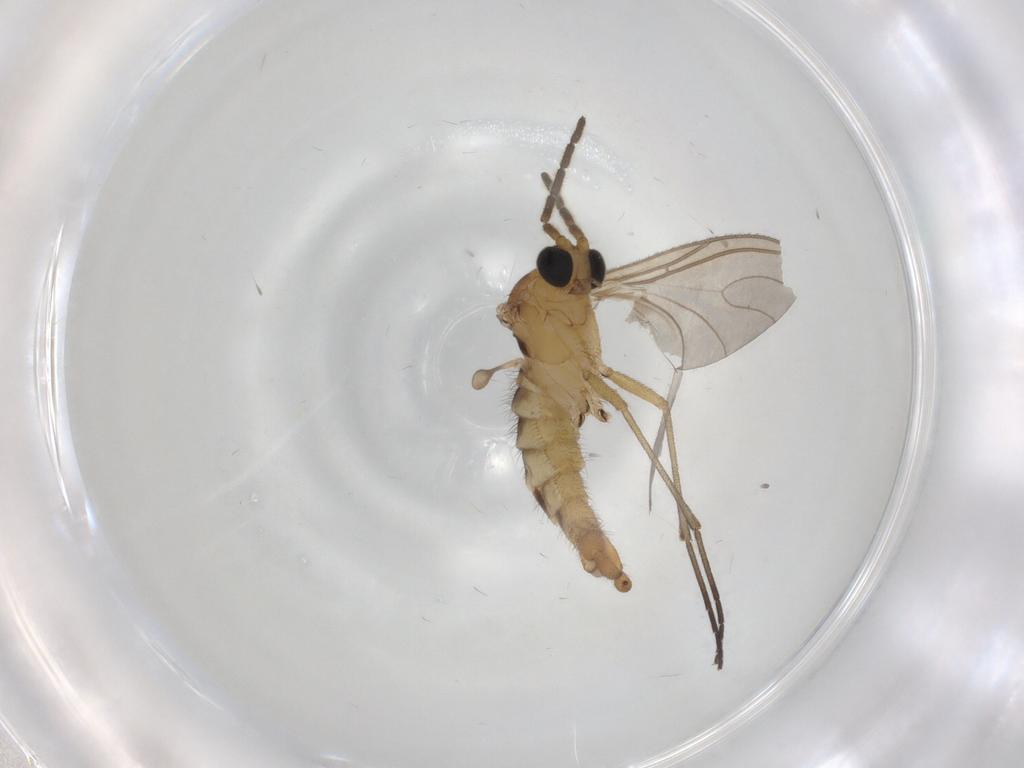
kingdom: Animalia
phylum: Arthropoda
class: Insecta
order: Diptera
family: Sciaridae
